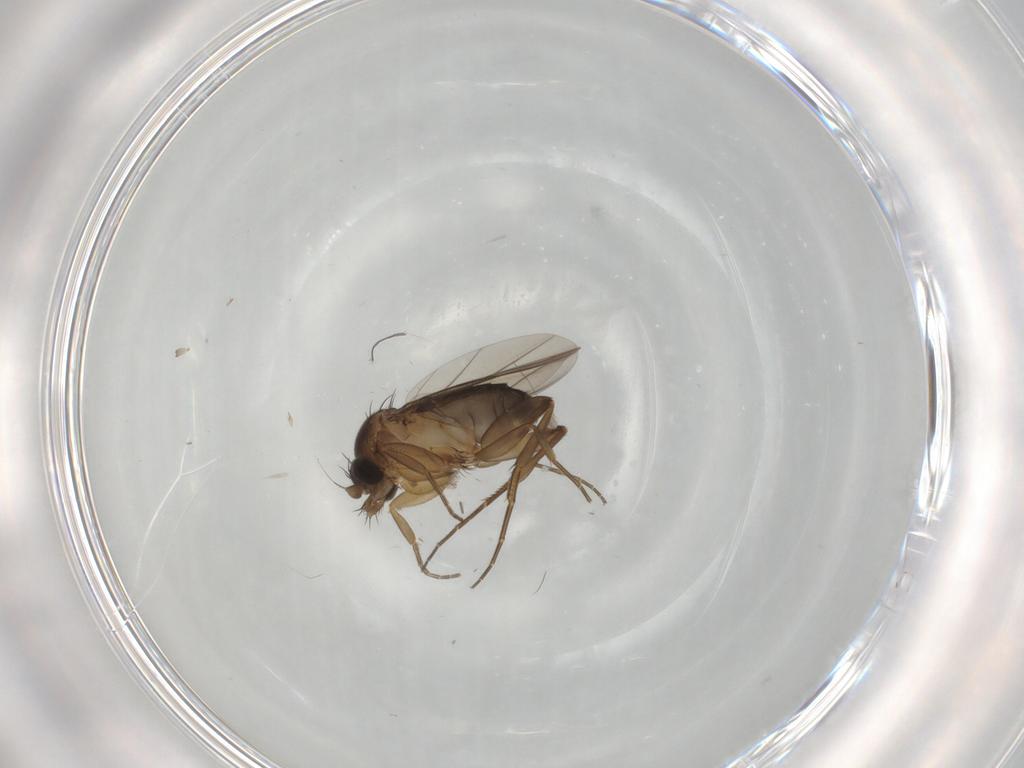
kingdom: Animalia
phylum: Arthropoda
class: Insecta
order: Diptera
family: Phoridae
